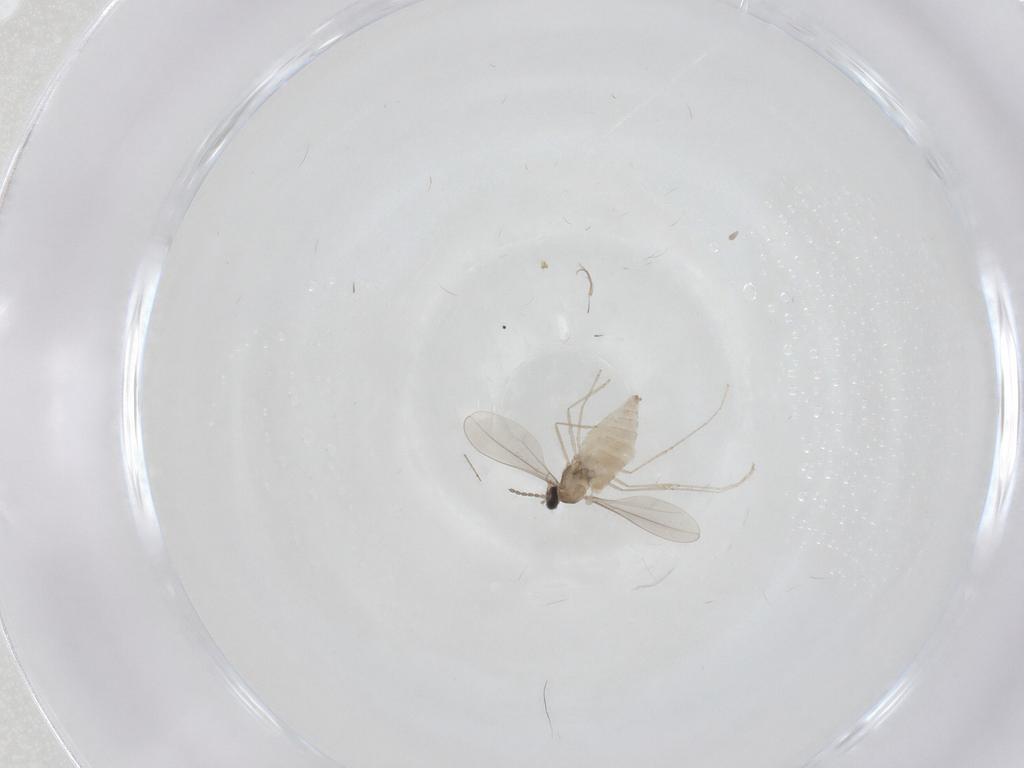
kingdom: Animalia
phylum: Arthropoda
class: Insecta
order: Diptera
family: Cecidomyiidae
